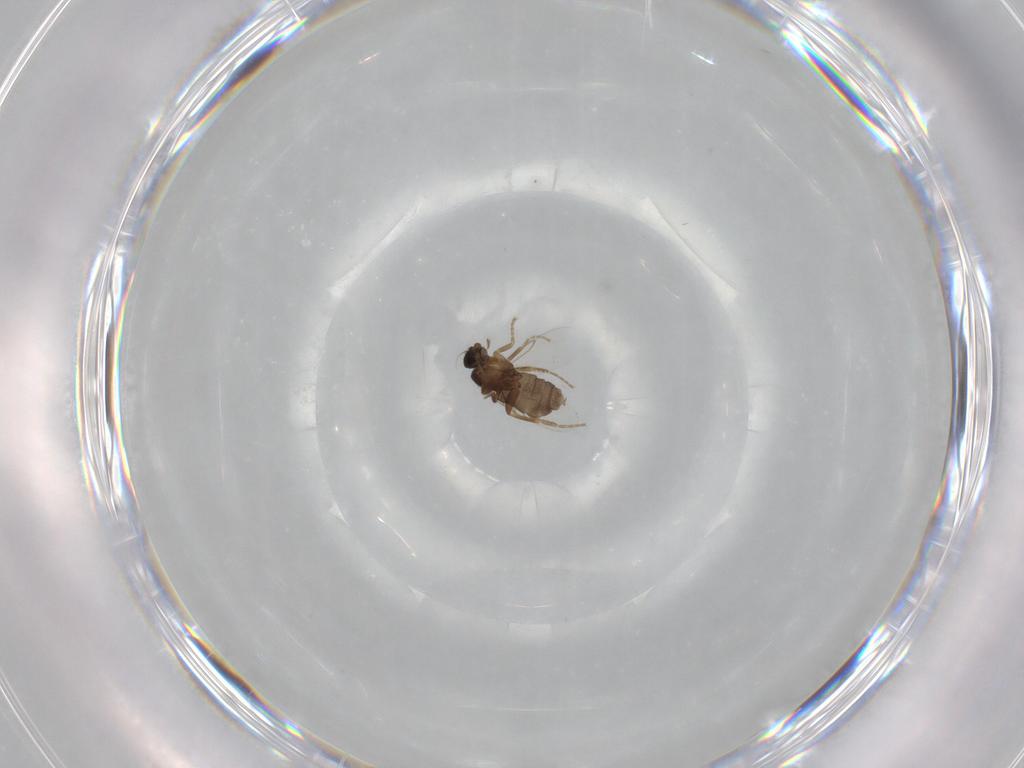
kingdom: Animalia
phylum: Arthropoda
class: Insecta
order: Diptera
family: Phoridae
